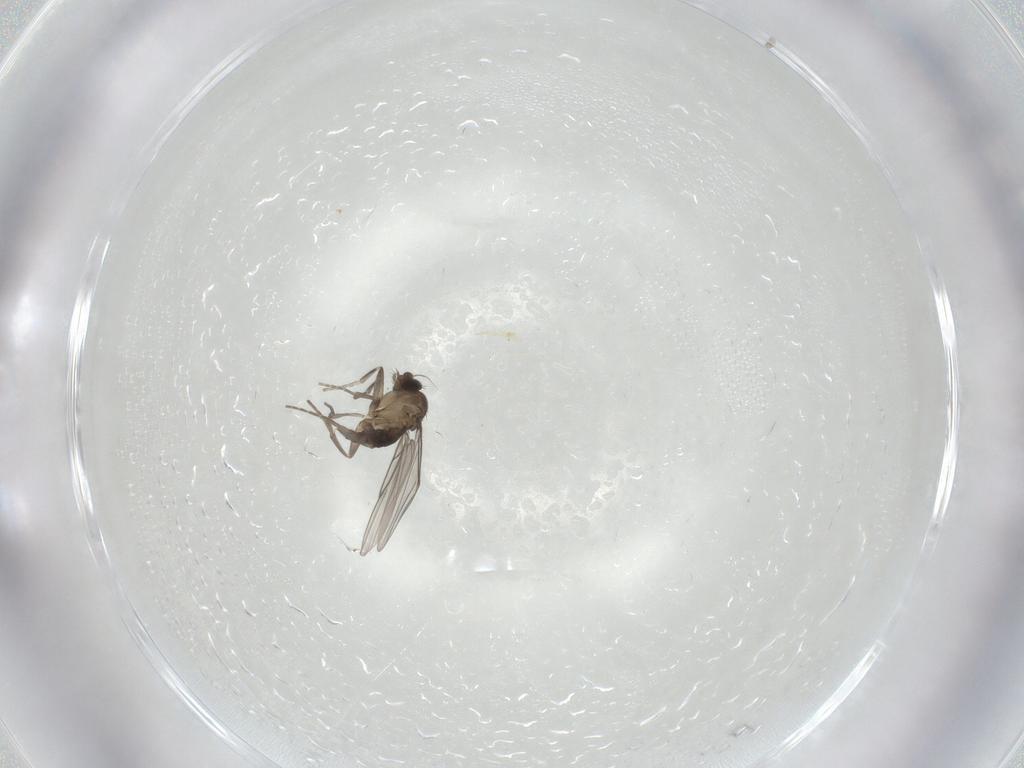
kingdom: Animalia
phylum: Arthropoda
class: Insecta
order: Diptera
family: Phoridae
